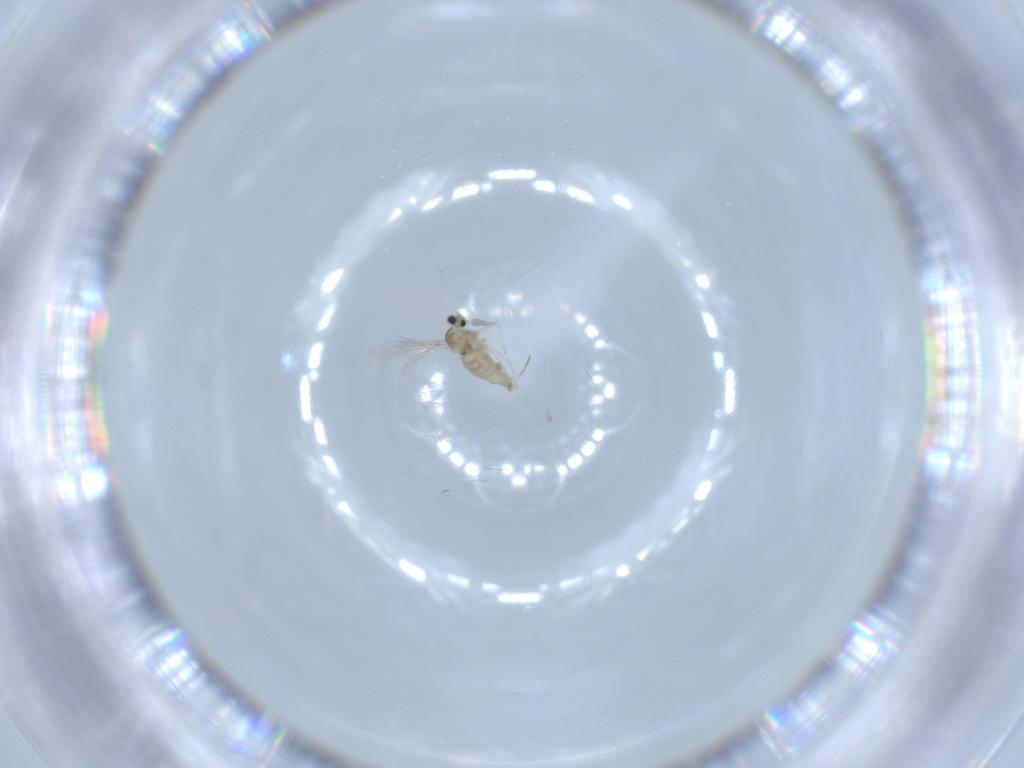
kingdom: Animalia
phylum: Arthropoda
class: Insecta
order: Diptera
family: Cecidomyiidae
